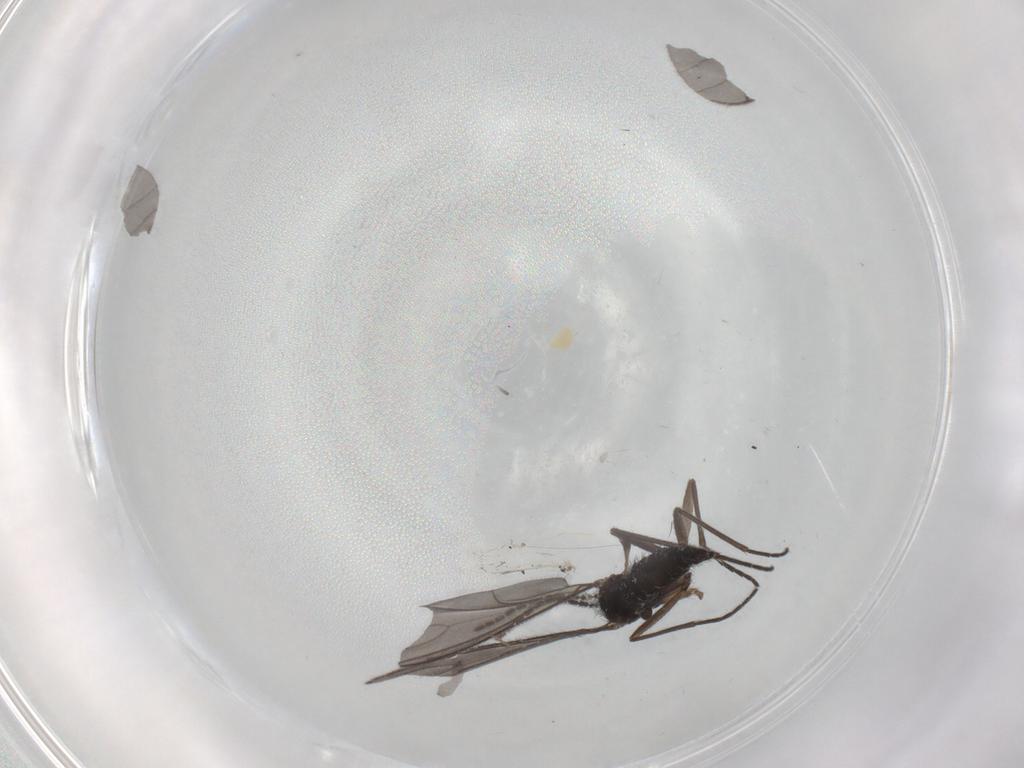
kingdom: Animalia
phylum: Arthropoda
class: Insecta
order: Diptera
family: Sciaridae
